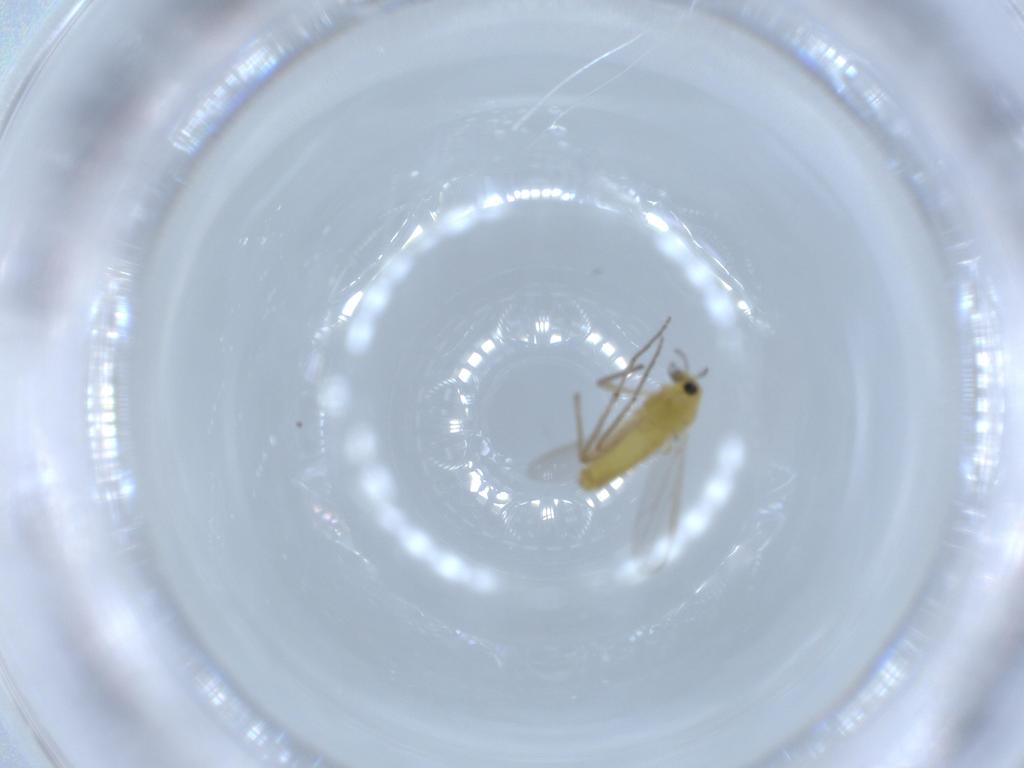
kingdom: Animalia
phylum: Arthropoda
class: Insecta
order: Diptera
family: Chironomidae
